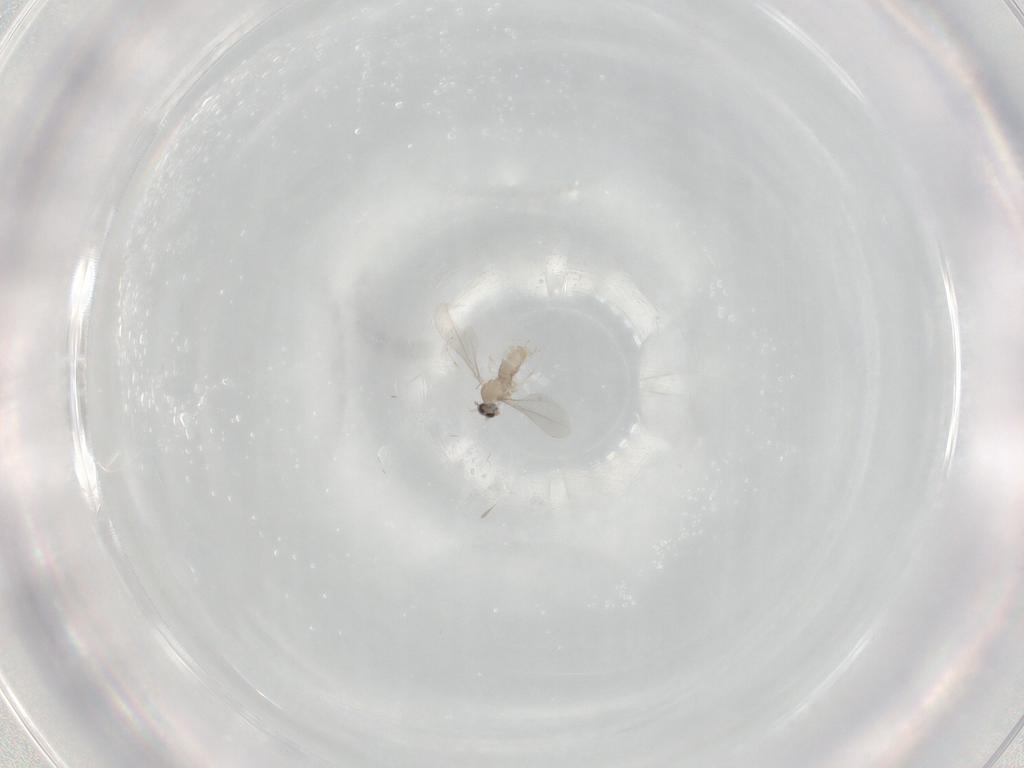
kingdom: Animalia
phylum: Arthropoda
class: Insecta
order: Diptera
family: Cecidomyiidae
